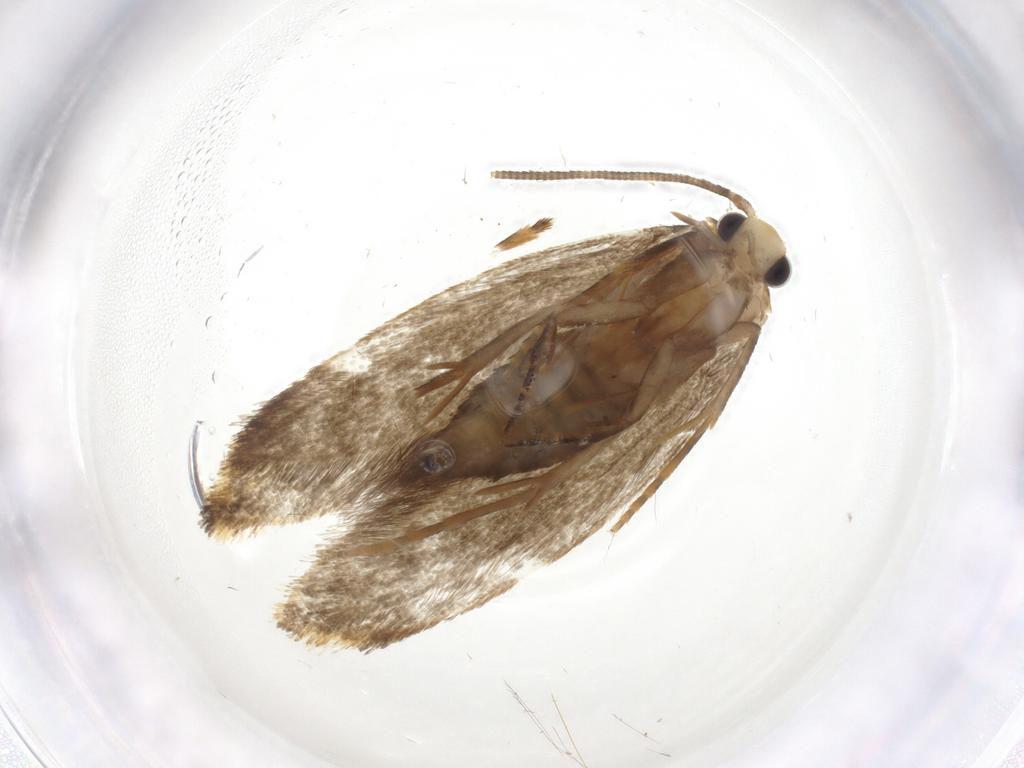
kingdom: Animalia
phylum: Arthropoda
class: Insecta
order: Lepidoptera
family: Tineidae
